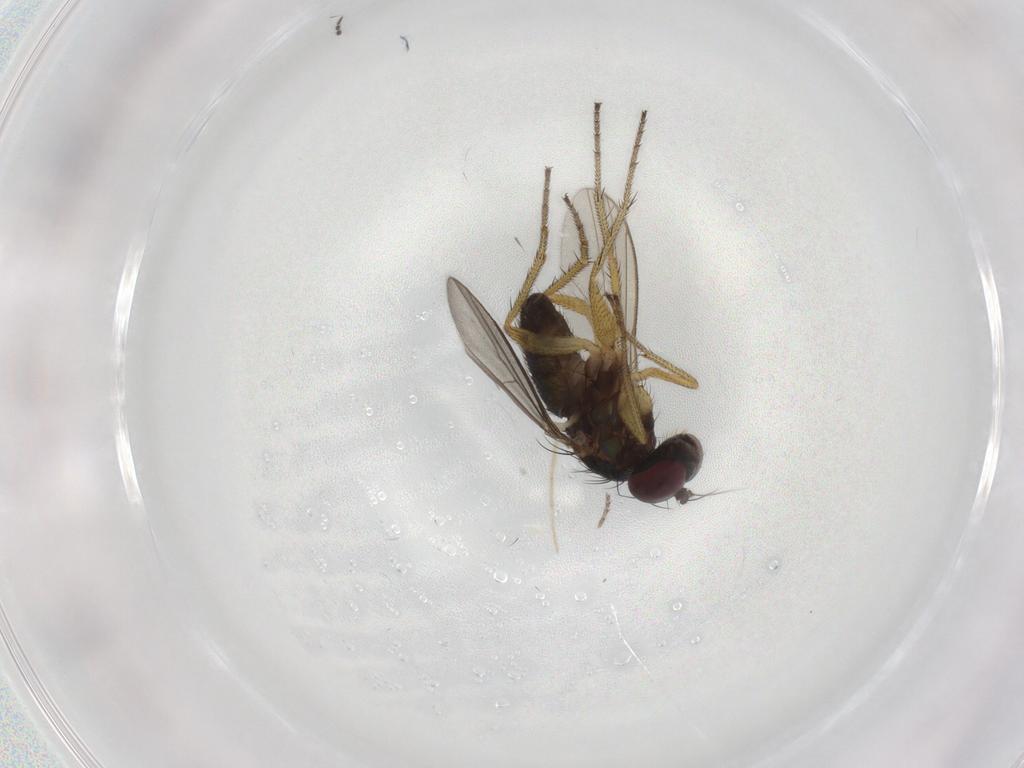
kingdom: Animalia
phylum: Arthropoda
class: Insecta
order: Diptera
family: Chironomidae
